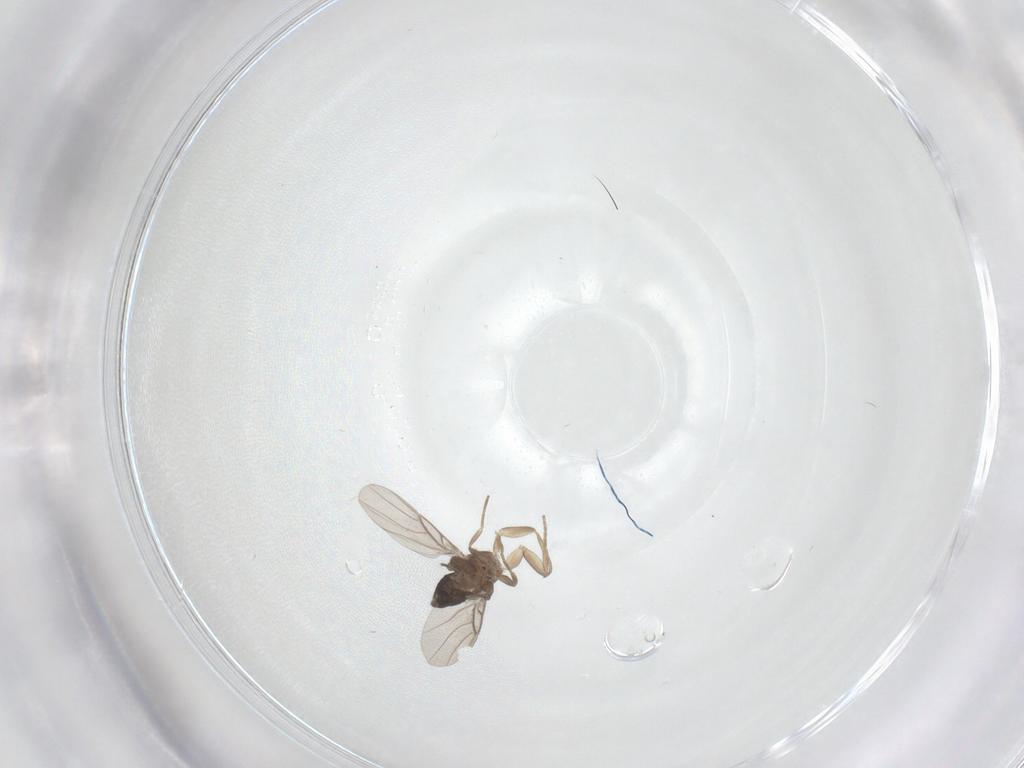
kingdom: Animalia
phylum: Arthropoda
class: Insecta
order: Diptera
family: Cecidomyiidae
